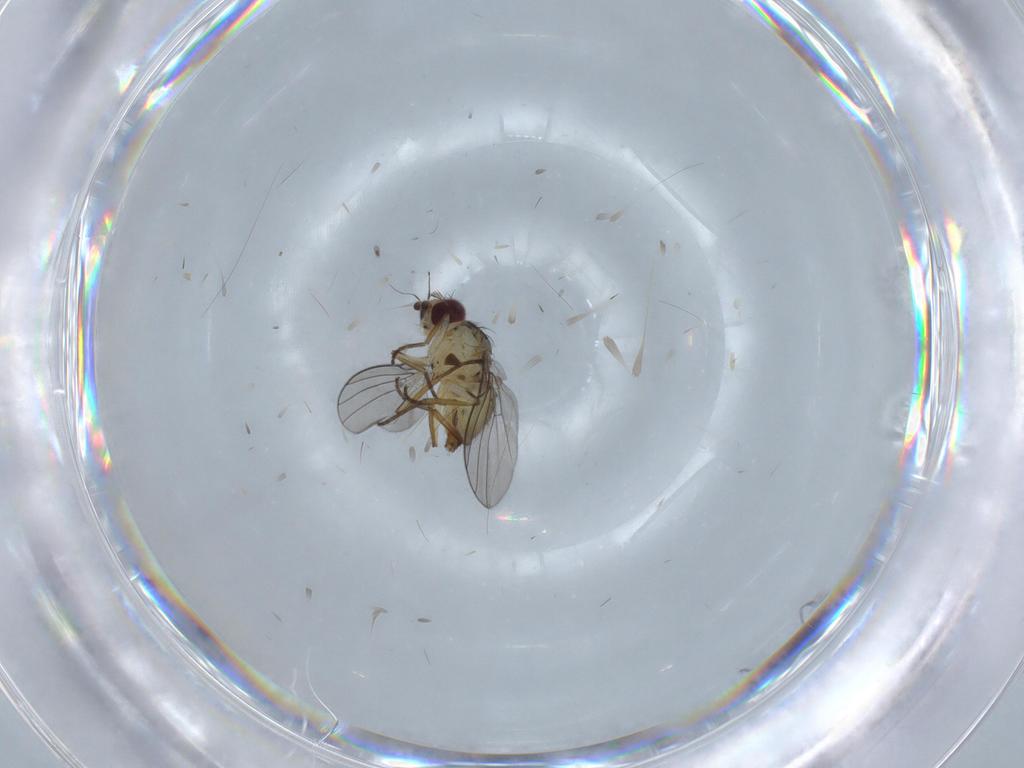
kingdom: Animalia
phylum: Arthropoda
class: Insecta
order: Diptera
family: Agromyzidae
